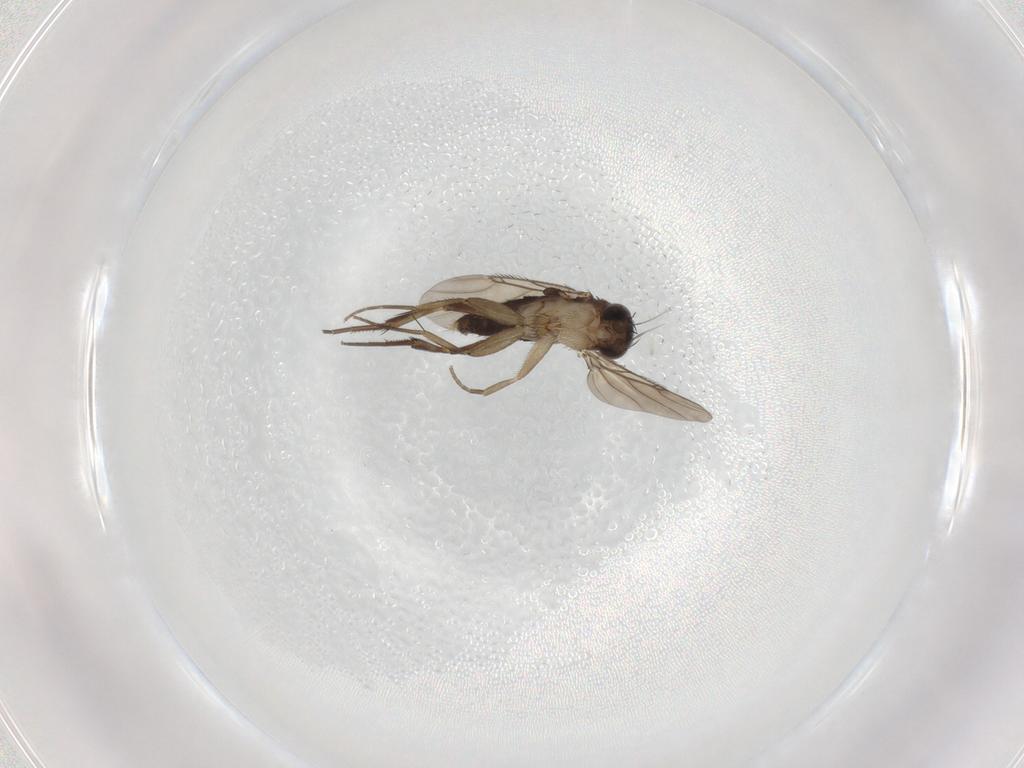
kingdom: Animalia
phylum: Arthropoda
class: Insecta
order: Diptera
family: Phoridae
